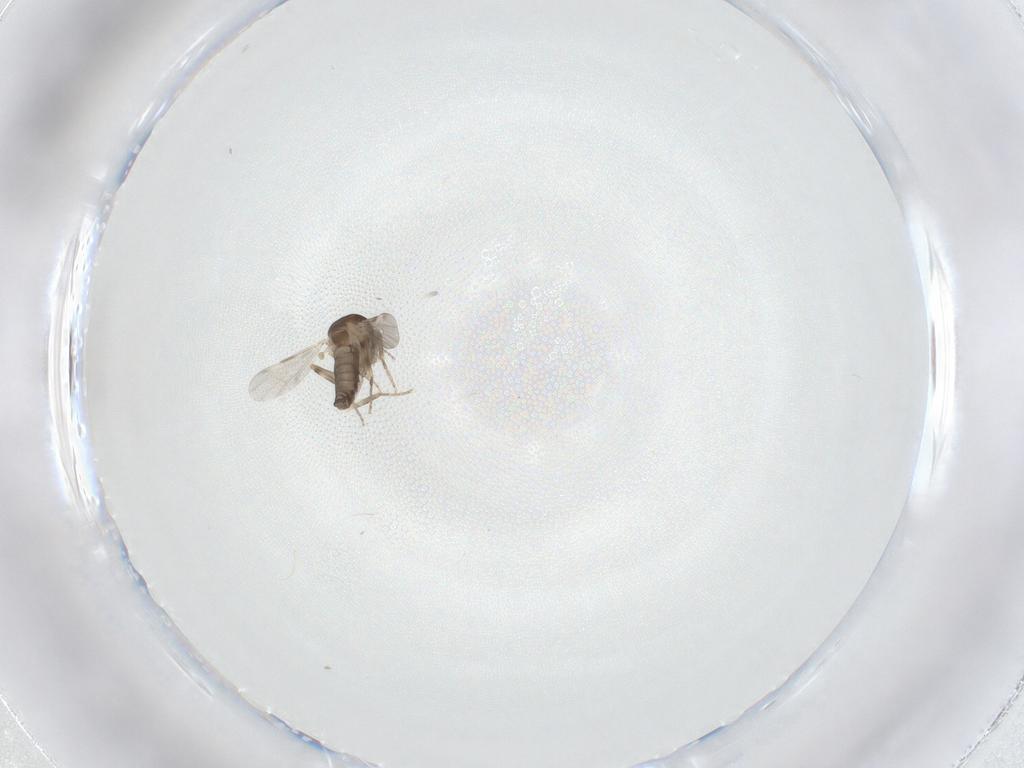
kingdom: Animalia
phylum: Arthropoda
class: Insecta
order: Diptera
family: Ceratopogonidae
